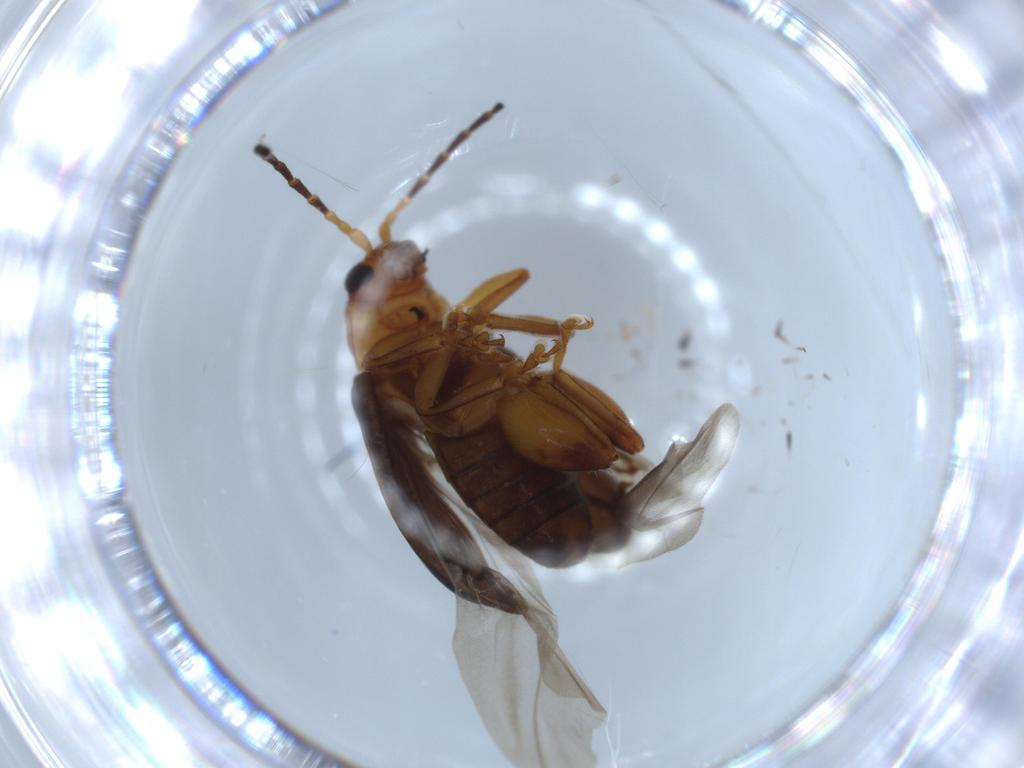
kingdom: Animalia
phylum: Arthropoda
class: Insecta
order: Coleoptera
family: Chrysomelidae
